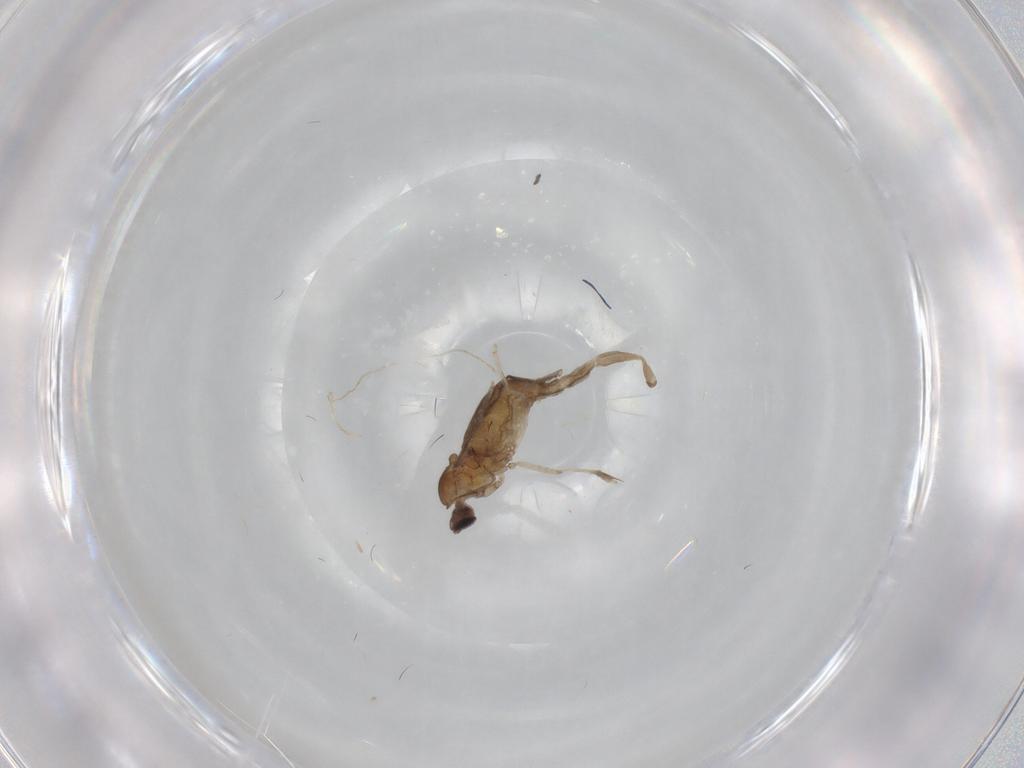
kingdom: Animalia
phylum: Arthropoda
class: Insecta
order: Diptera
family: Cecidomyiidae
